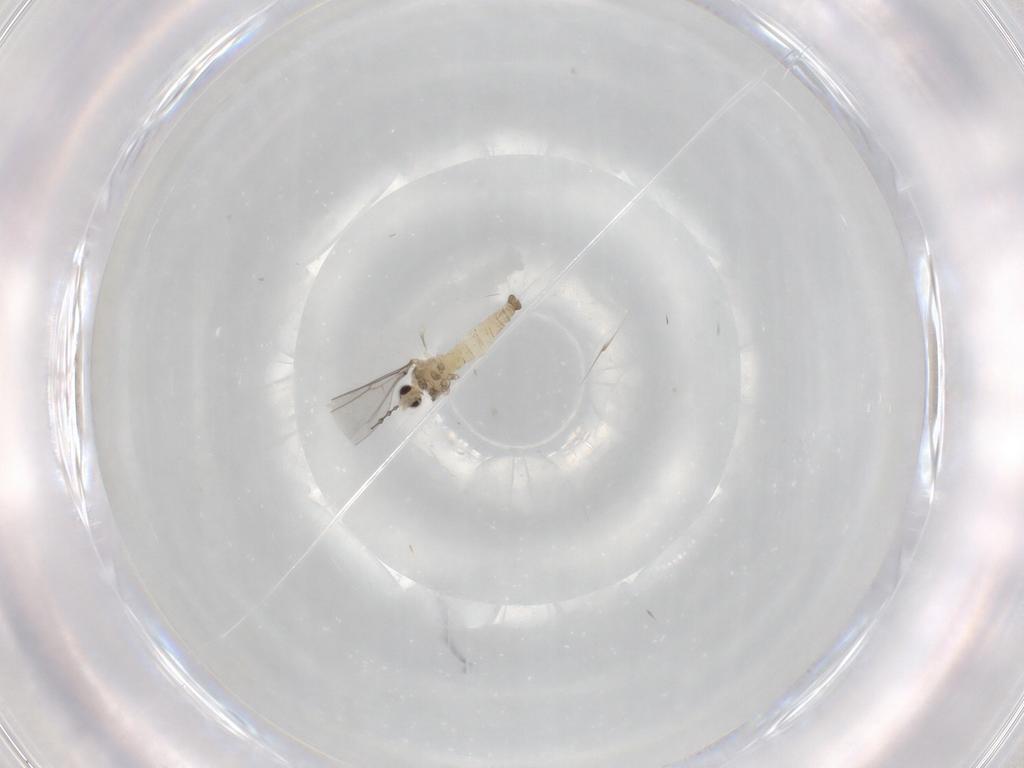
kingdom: Animalia
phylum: Arthropoda
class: Insecta
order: Diptera
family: Cecidomyiidae
